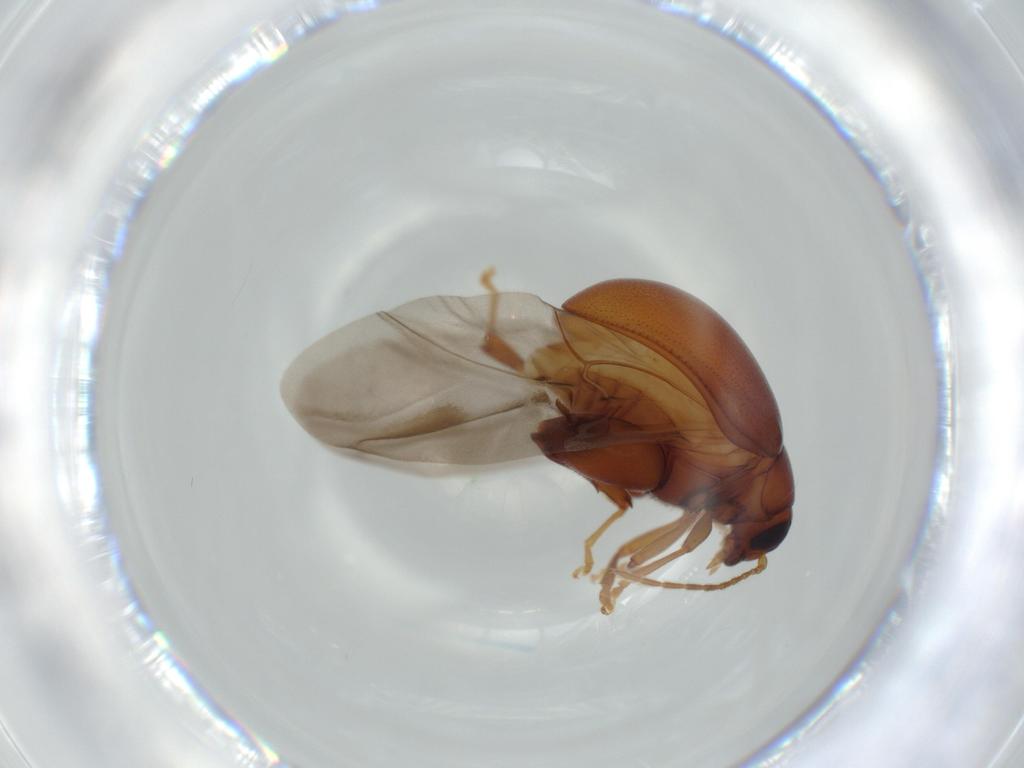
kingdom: Animalia
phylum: Arthropoda
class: Insecta
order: Coleoptera
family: Chrysomelidae
